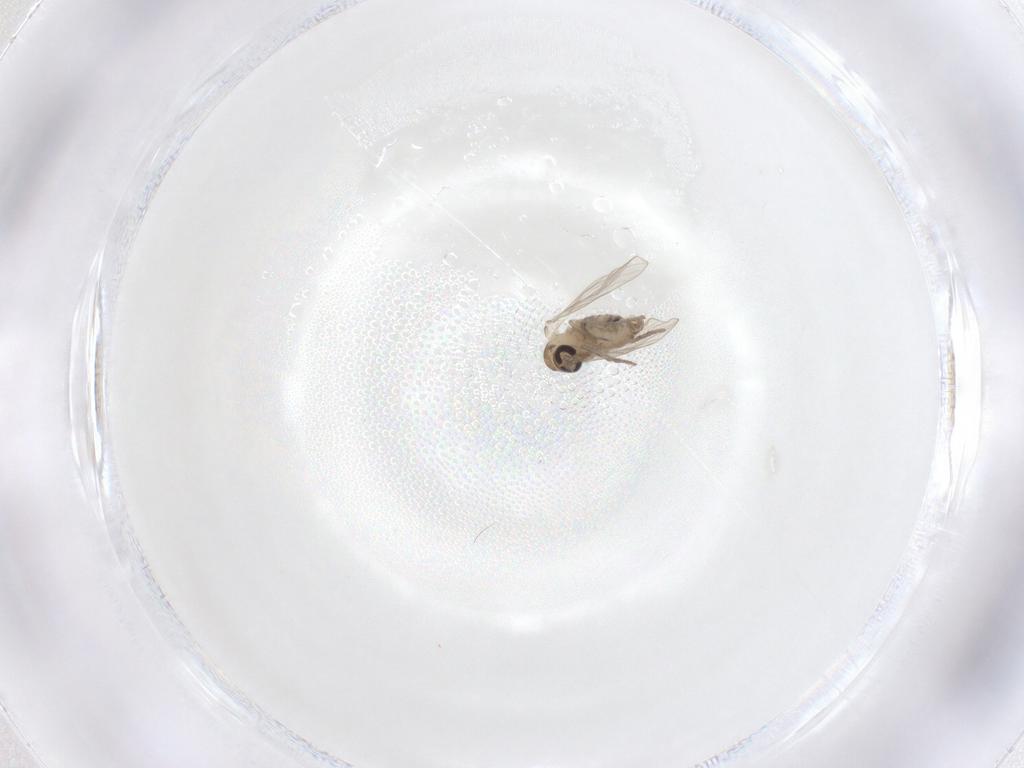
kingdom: Animalia
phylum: Arthropoda
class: Insecta
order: Diptera
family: Psychodidae
